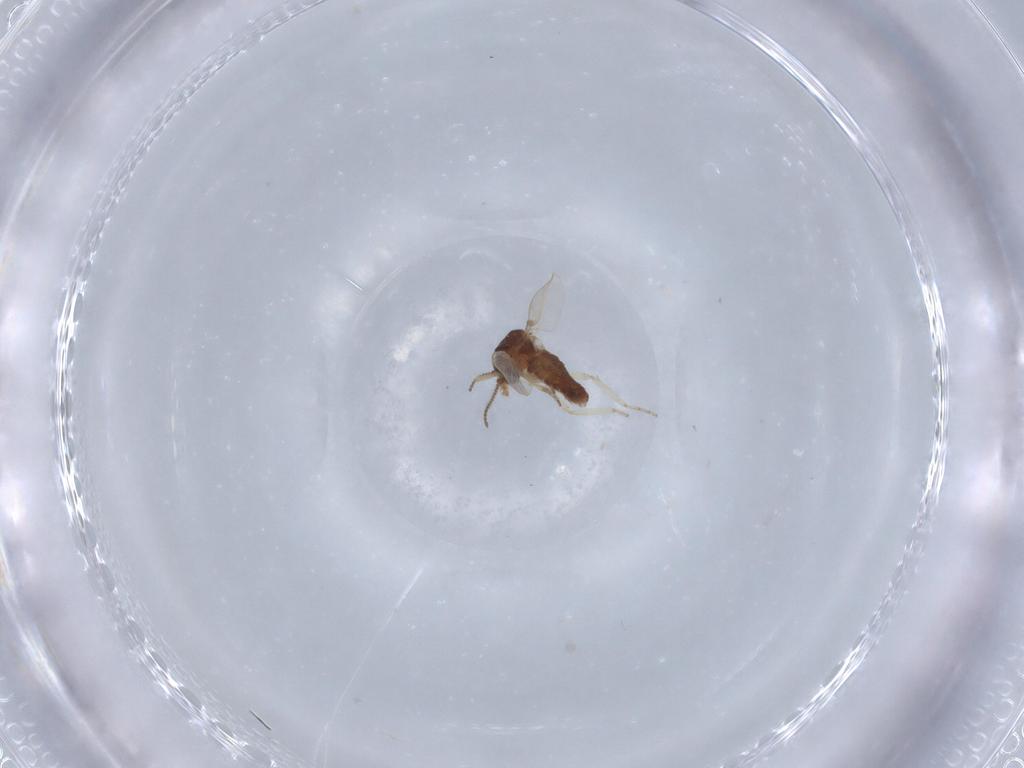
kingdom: Animalia
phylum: Arthropoda
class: Insecta
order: Diptera
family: Ceratopogonidae
